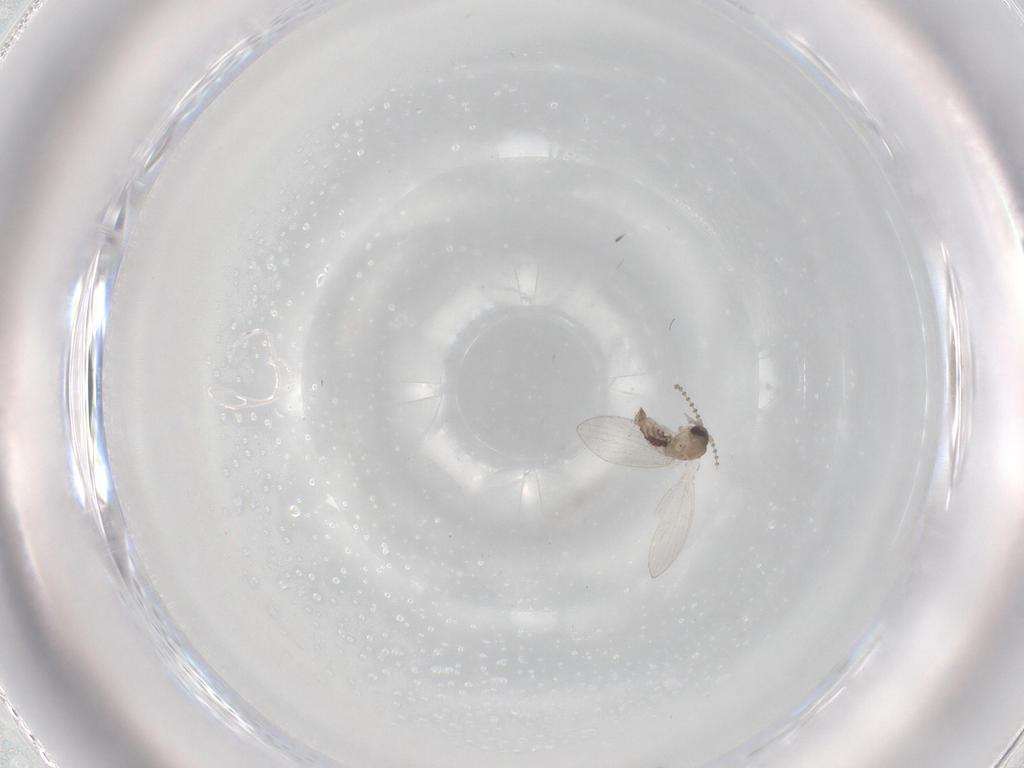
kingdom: Animalia
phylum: Arthropoda
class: Insecta
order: Diptera
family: Psychodidae
